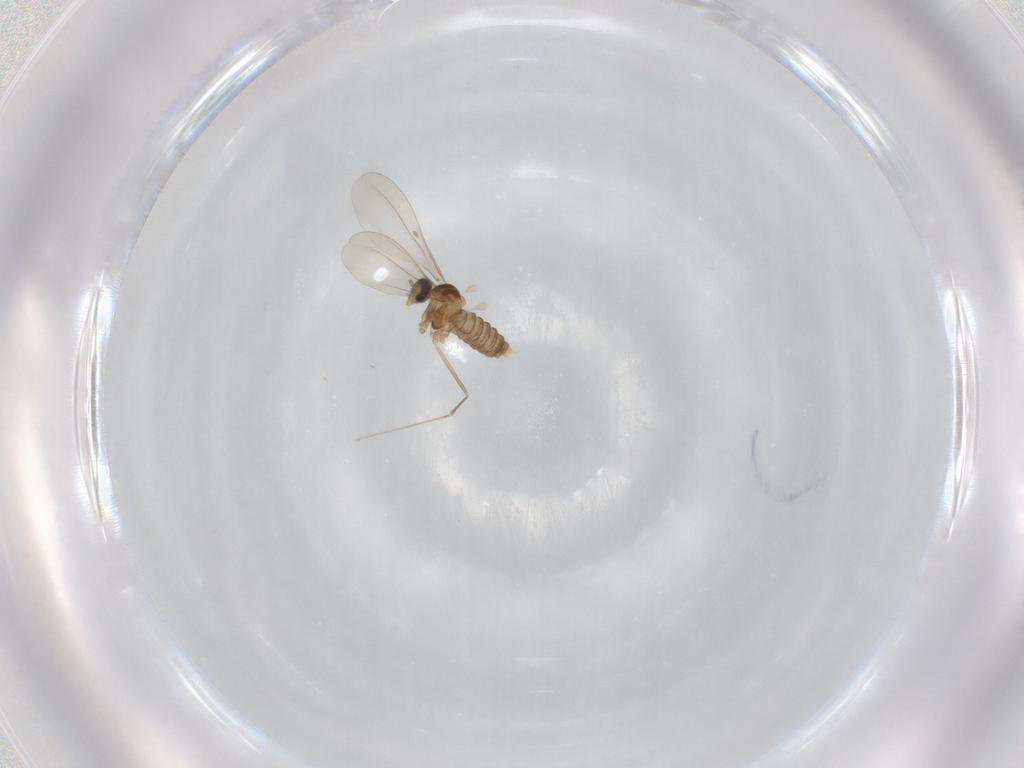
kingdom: Animalia
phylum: Arthropoda
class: Insecta
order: Diptera
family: Cecidomyiidae
